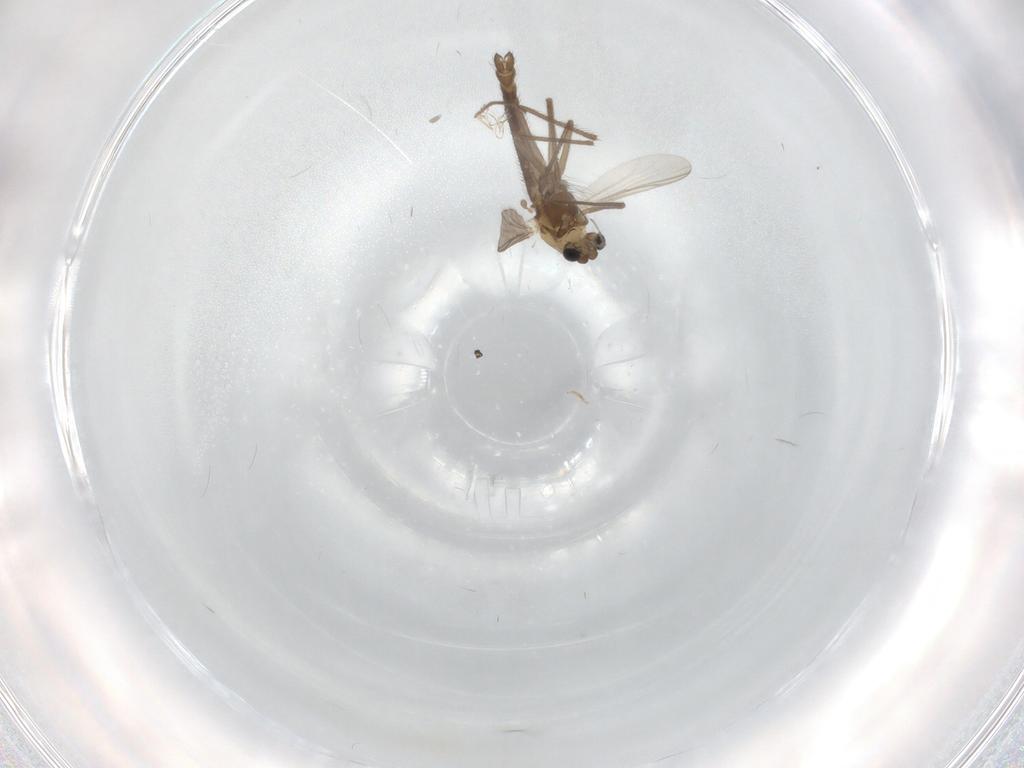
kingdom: Animalia
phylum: Arthropoda
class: Insecta
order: Diptera
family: Chironomidae
